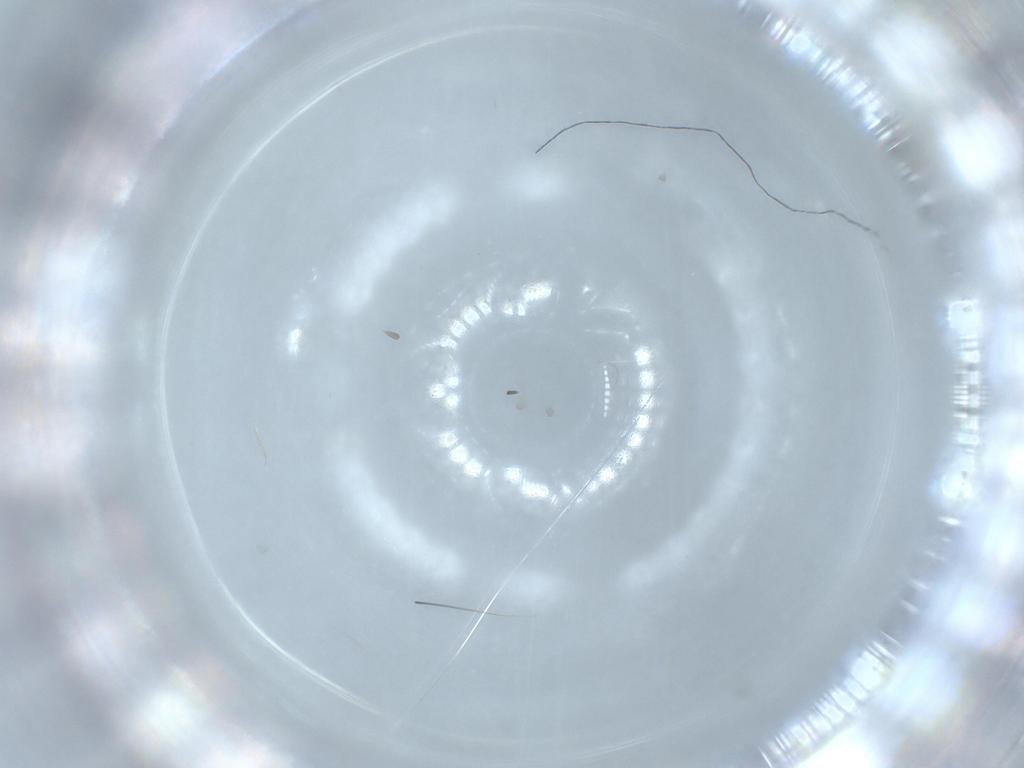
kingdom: Animalia
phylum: Arthropoda
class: Insecta
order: Diptera
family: Cecidomyiidae
